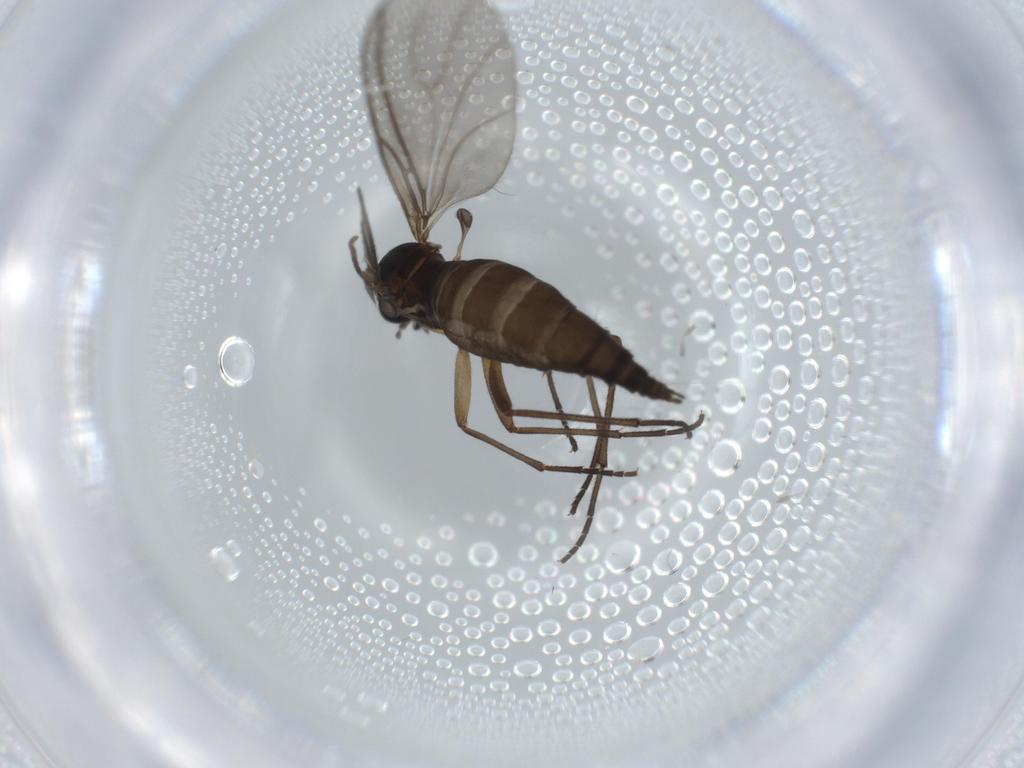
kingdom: Animalia
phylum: Arthropoda
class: Insecta
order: Diptera
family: Sciaridae
